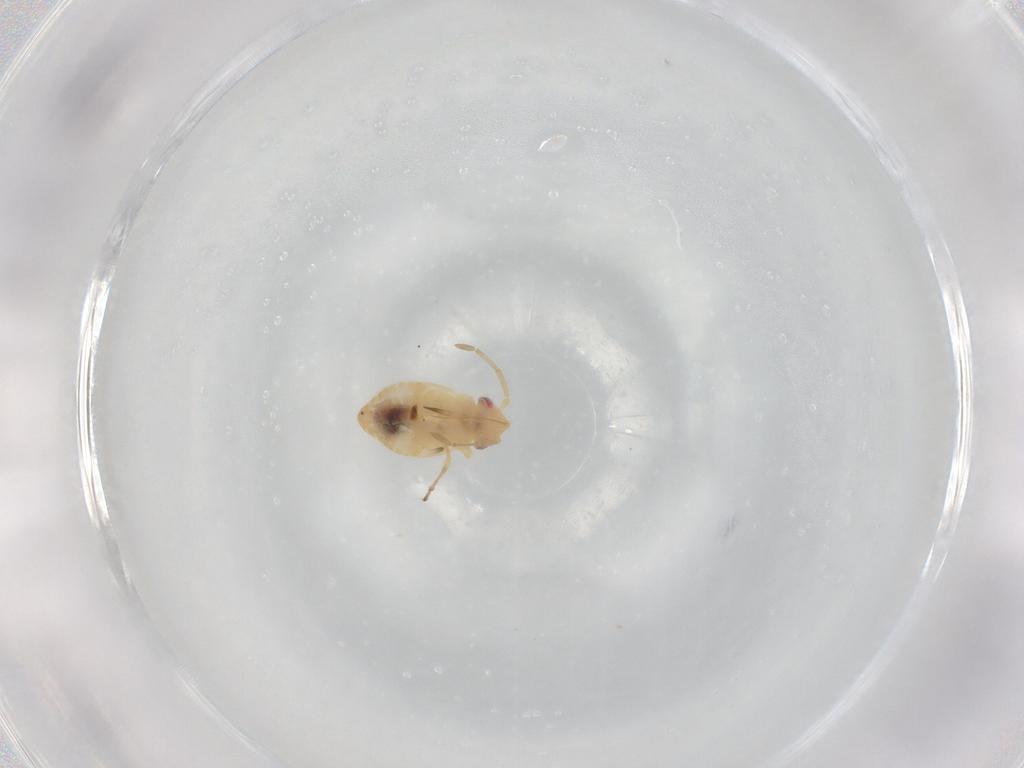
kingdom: Animalia
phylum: Arthropoda
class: Insecta
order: Hemiptera
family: Miridae
